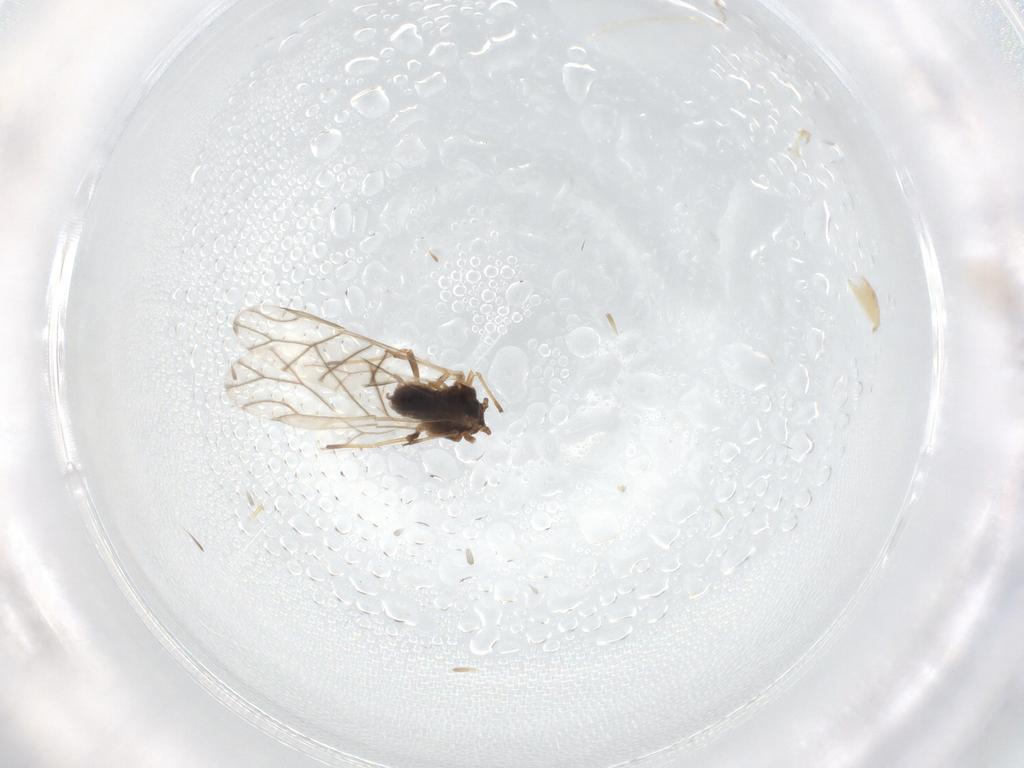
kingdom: Animalia
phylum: Arthropoda
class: Insecta
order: Hemiptera
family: Aphididae
